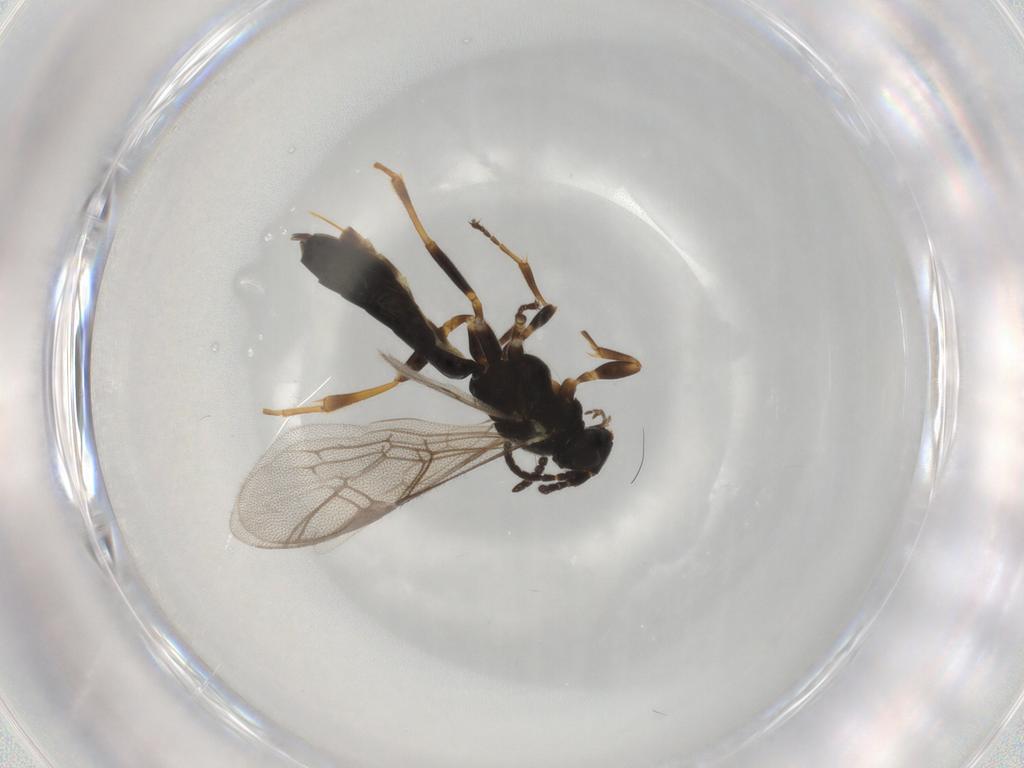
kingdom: Animalia
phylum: Arthropoda
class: Insecta
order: Hymenoptera
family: Ichneumonidae
